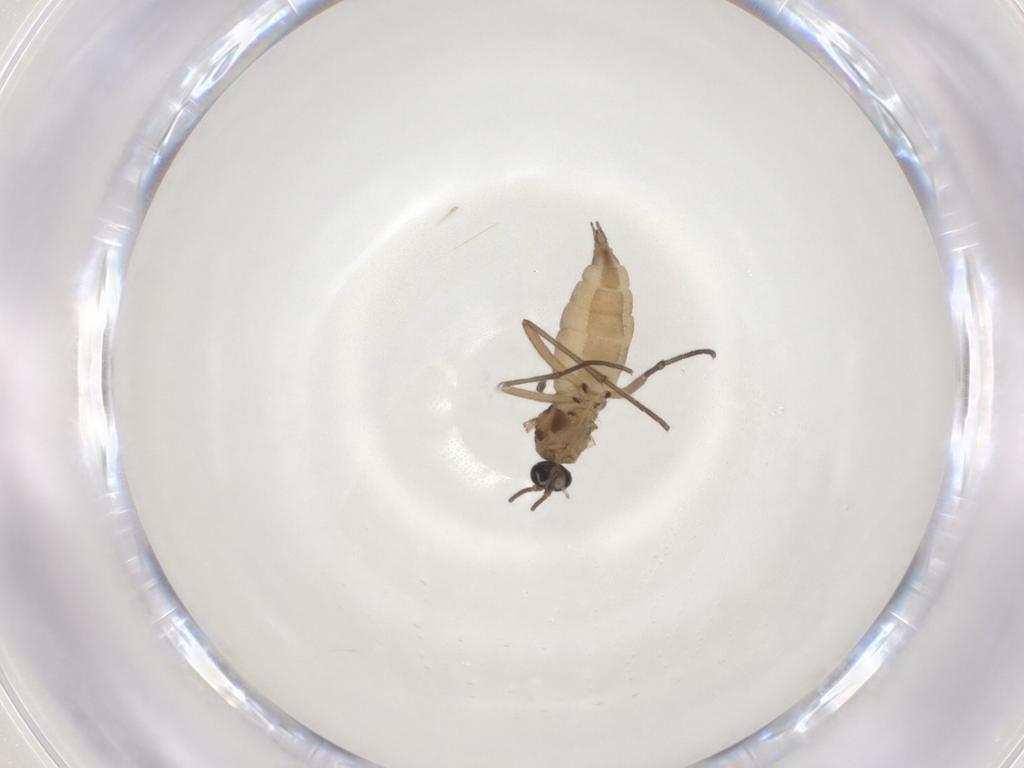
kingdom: Animalia
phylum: Arthropoda
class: Insecta
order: Diptera
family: Sciaridae
